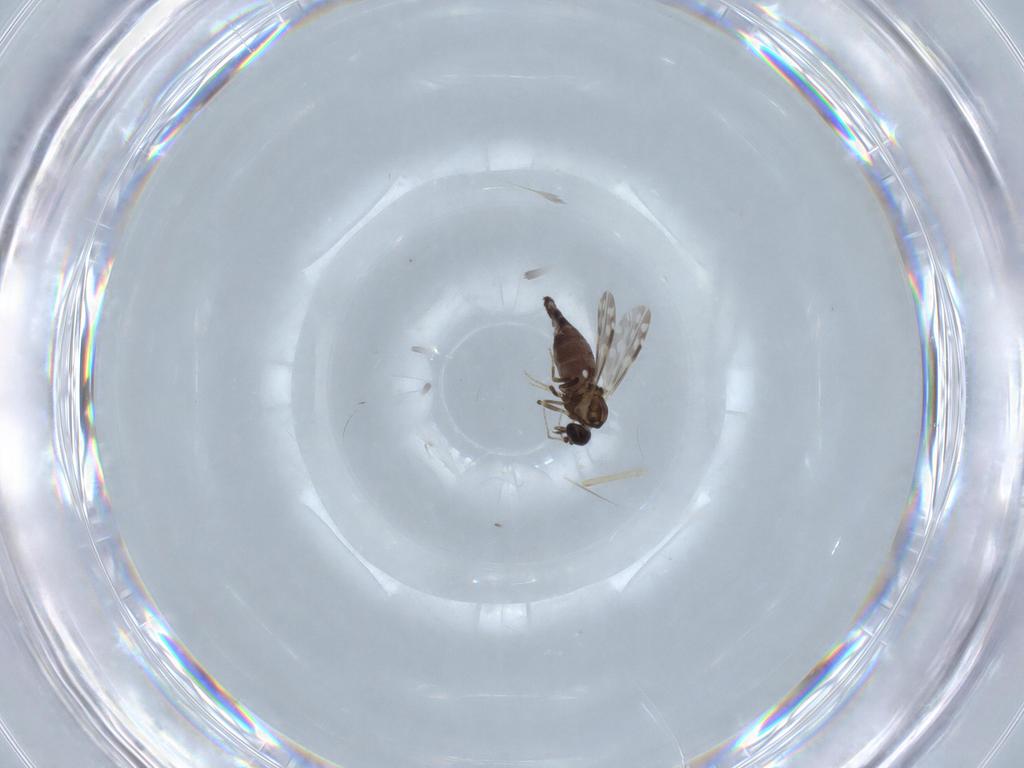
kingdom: Animalia
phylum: Arthropoda
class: Insecta
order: Diptera
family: Ceratopogonidae
